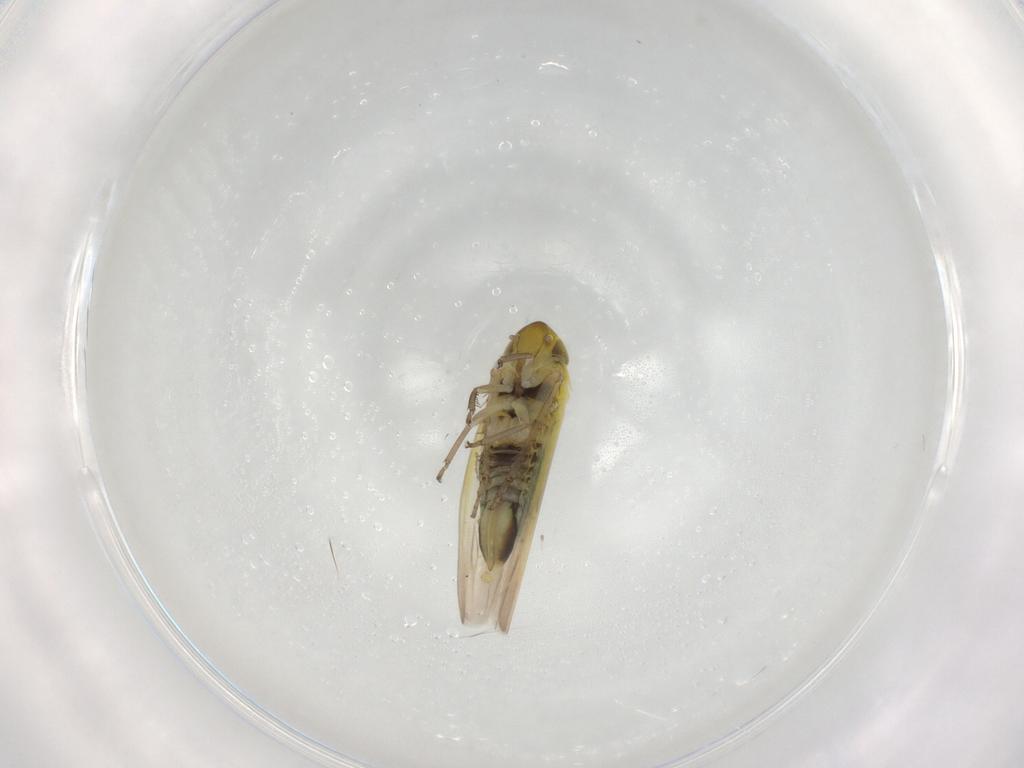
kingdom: Animalia
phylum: Arthropoda
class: Insecta
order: Hemiptera
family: Cicadellidae
